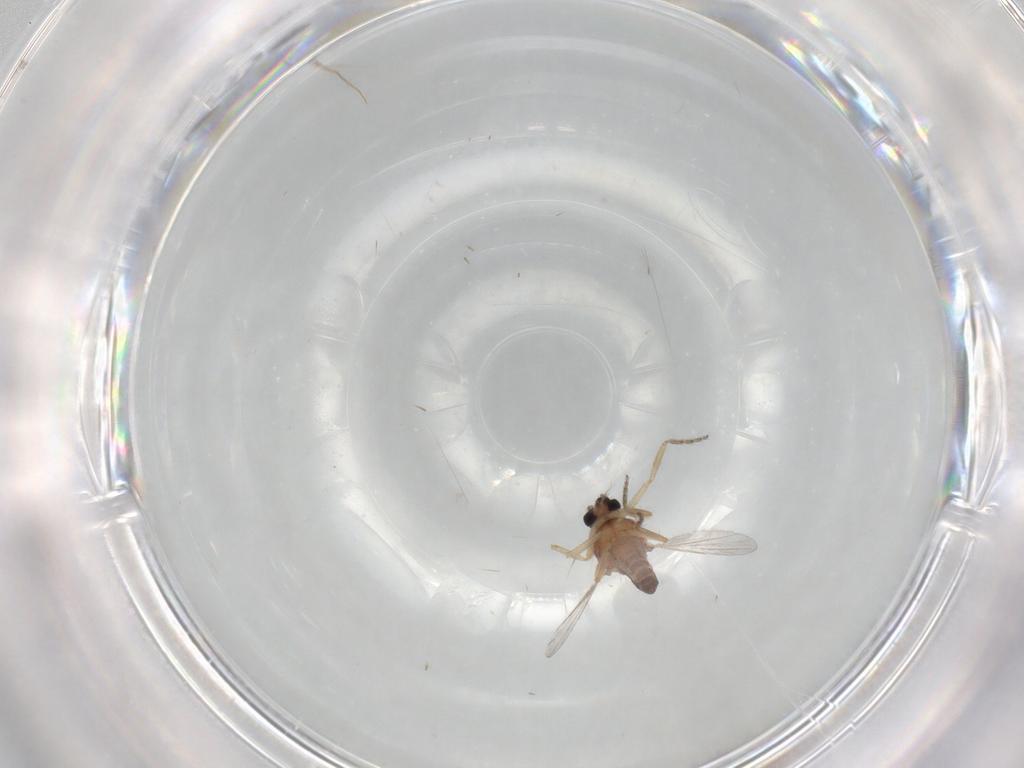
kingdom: Animalia
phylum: Arthropoda
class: Insecta
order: Diptera
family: Ceratopogonidae
